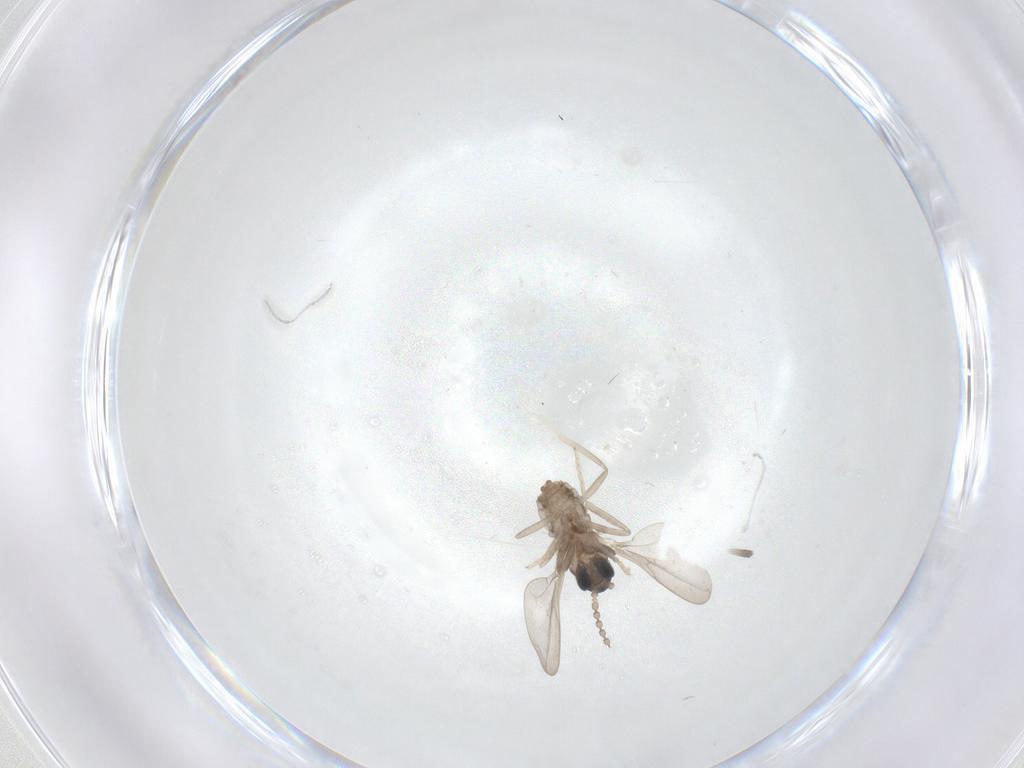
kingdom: Animalia
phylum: Arthropoda
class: Insecta
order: Diptera
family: Cecidomyiidae
